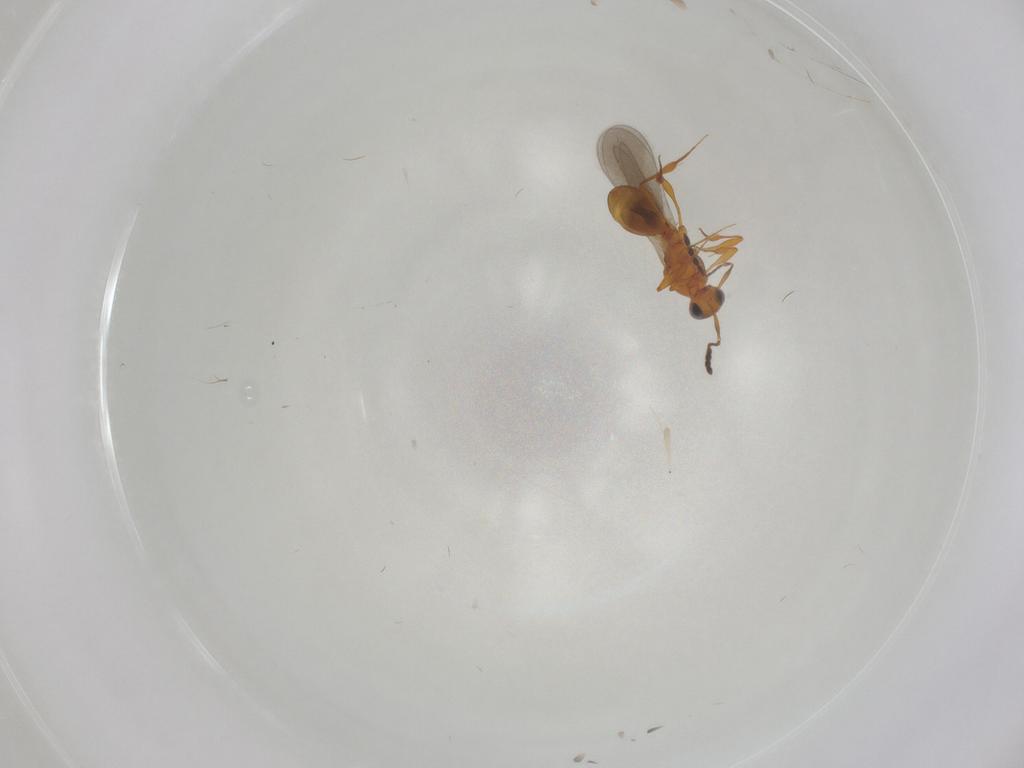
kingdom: Animalia
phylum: Arthropoda
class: Insecta
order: Hymenoptera
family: Platygastridae
